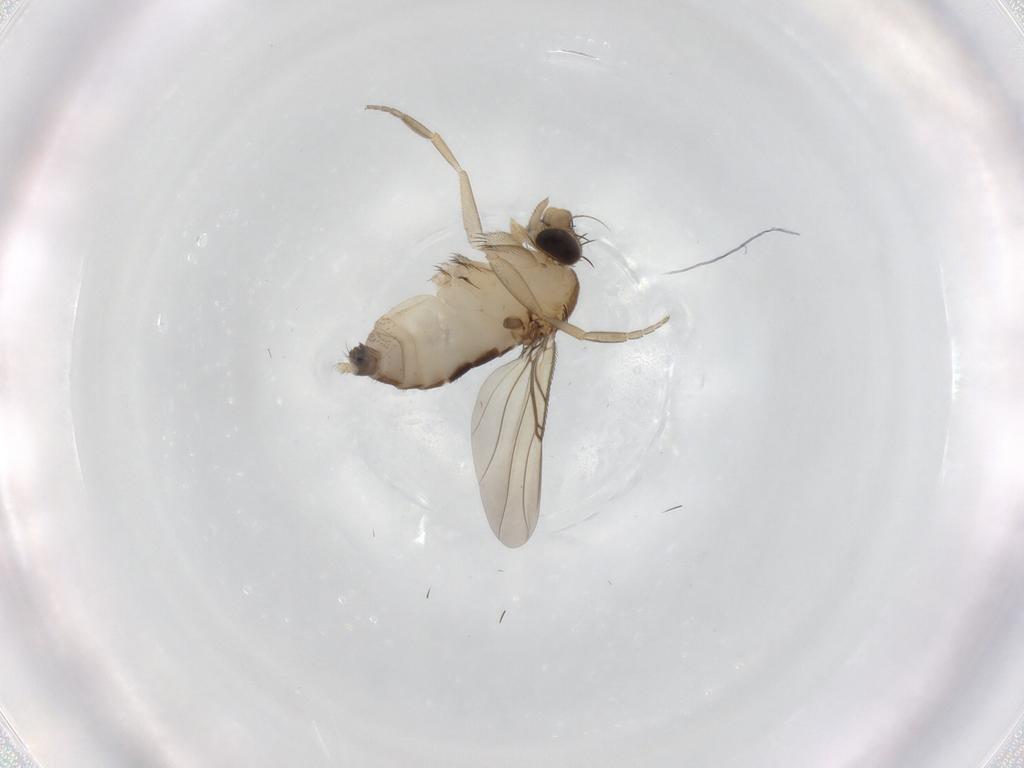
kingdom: Animalia
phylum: Arthropoda
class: Insecta
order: Diptera
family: Phoridae
